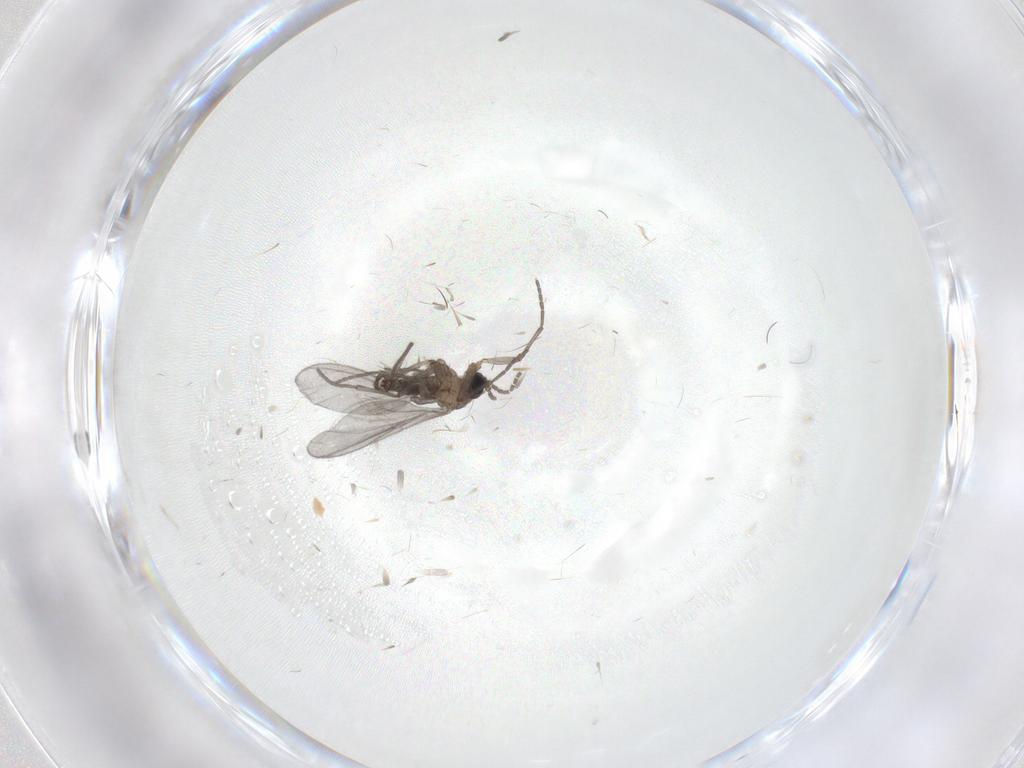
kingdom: Animalia
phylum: Arthropoda
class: Insecta
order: Diptera
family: Sciaridae
